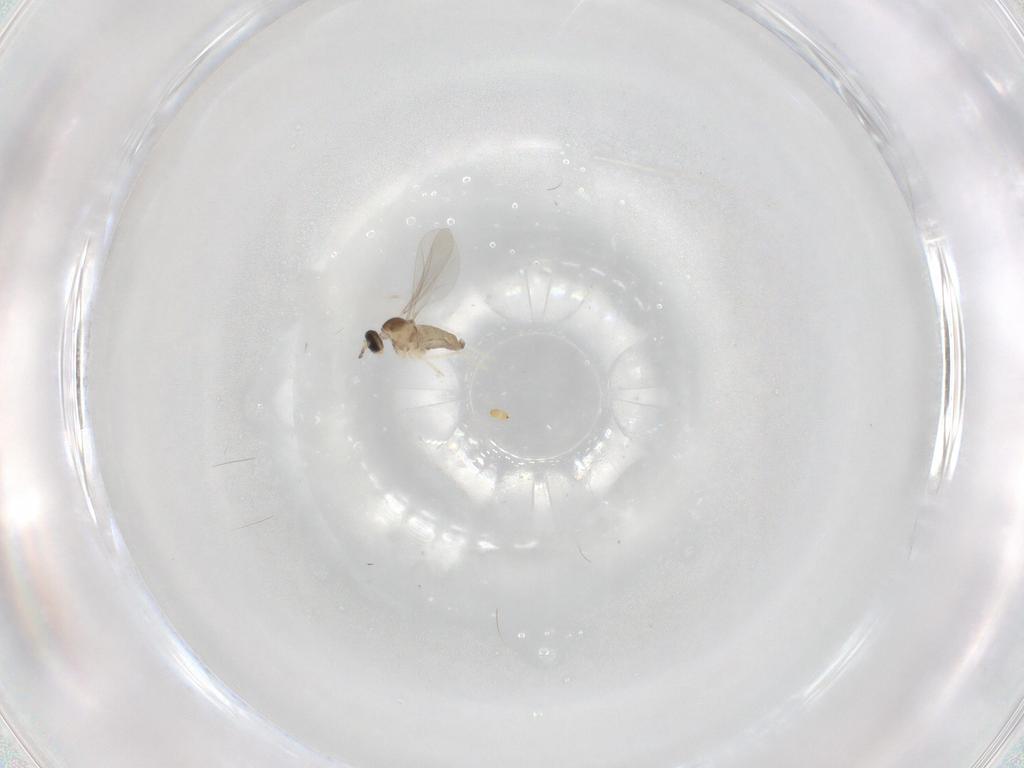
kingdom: Animalia
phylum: Arthropoda
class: Insecta
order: Diptera
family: Cecidomyiidae
